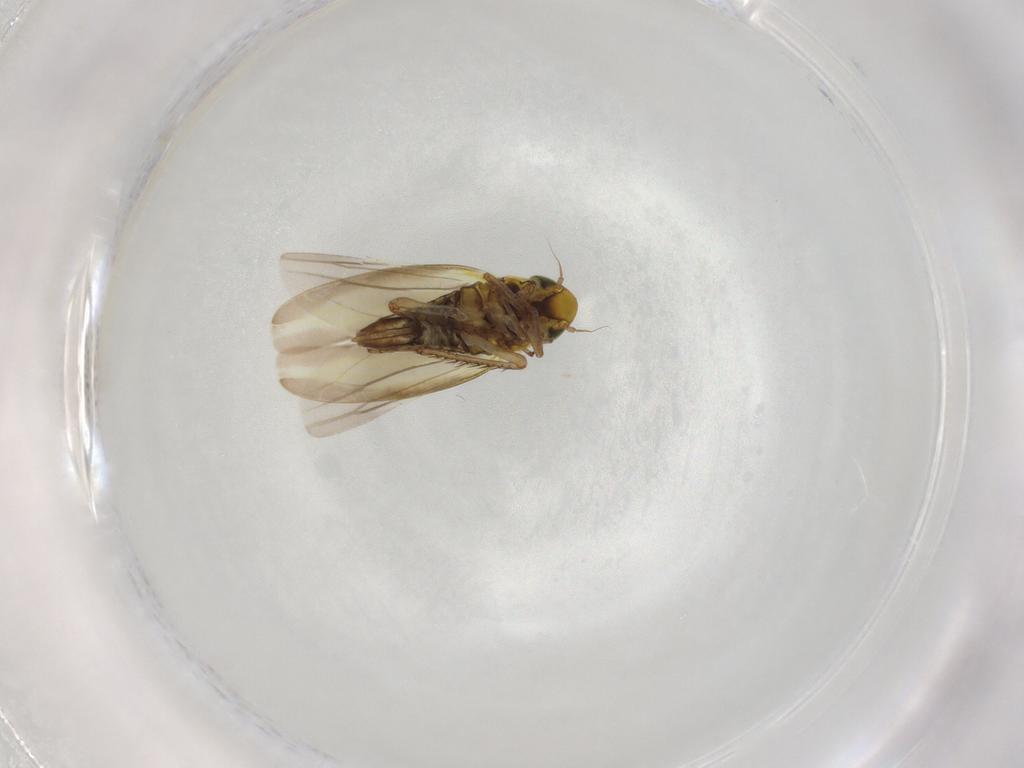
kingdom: Animalia
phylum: Arthropoda
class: Insecta
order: Hemiptera
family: Cicadellidae
